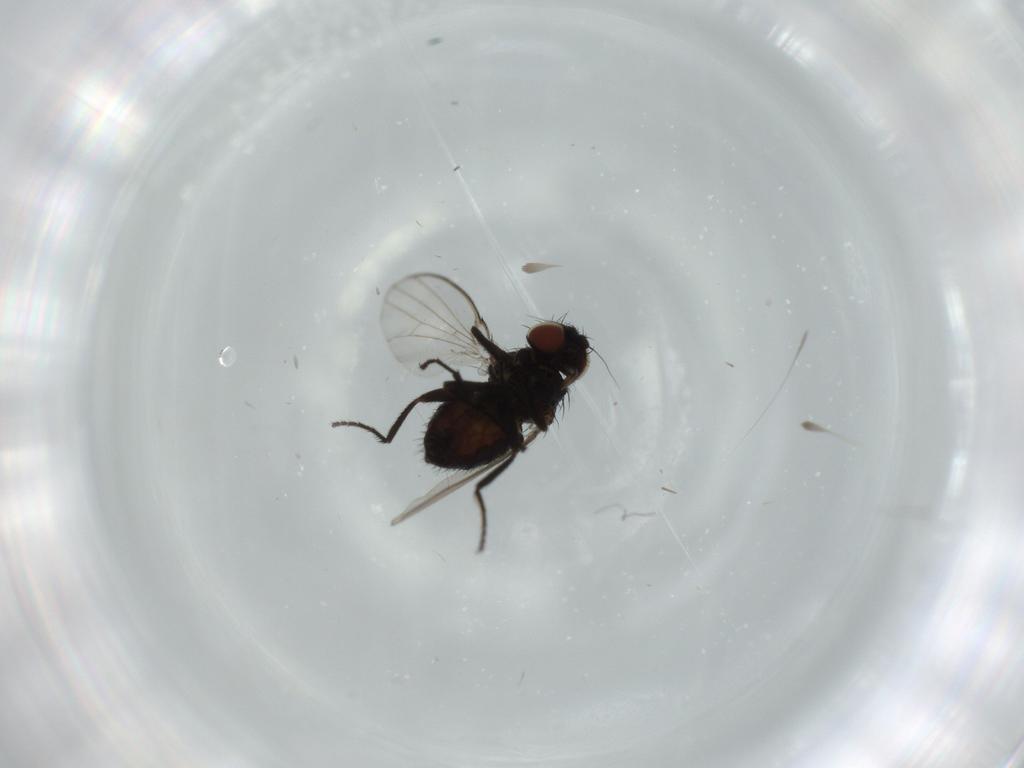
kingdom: Animalia
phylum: Arthropoda
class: Insecta
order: Diptera
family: Milichiidae
